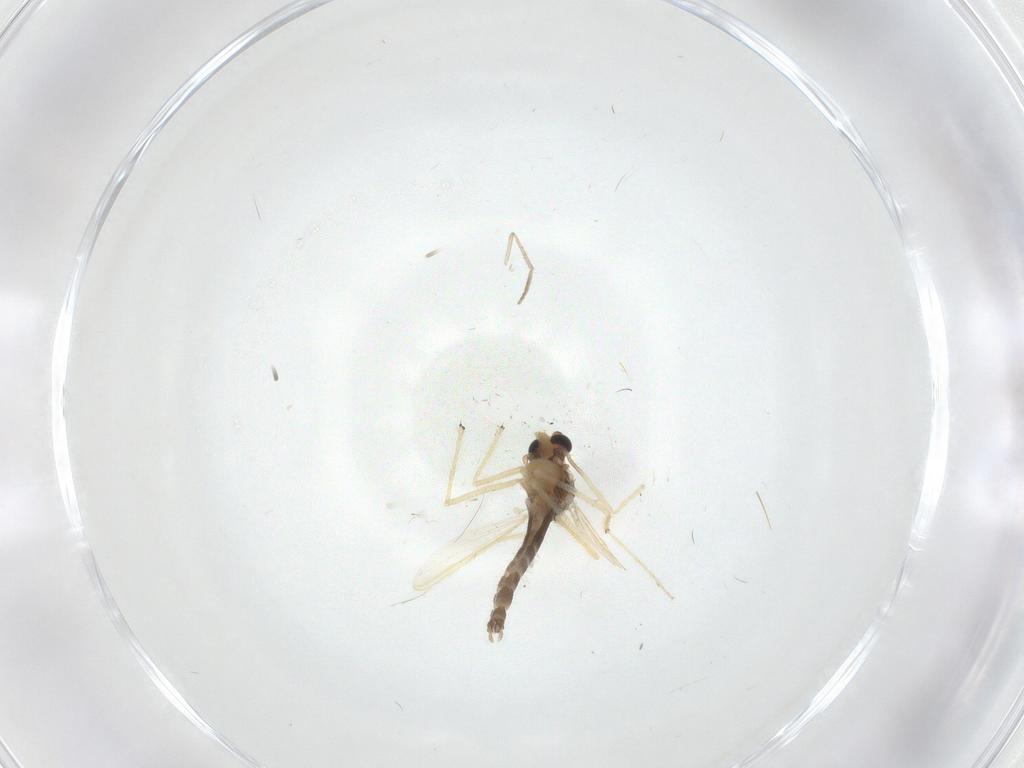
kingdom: Animalia
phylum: Arthropoda
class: Insecta
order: Diptera
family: Chironomidae
